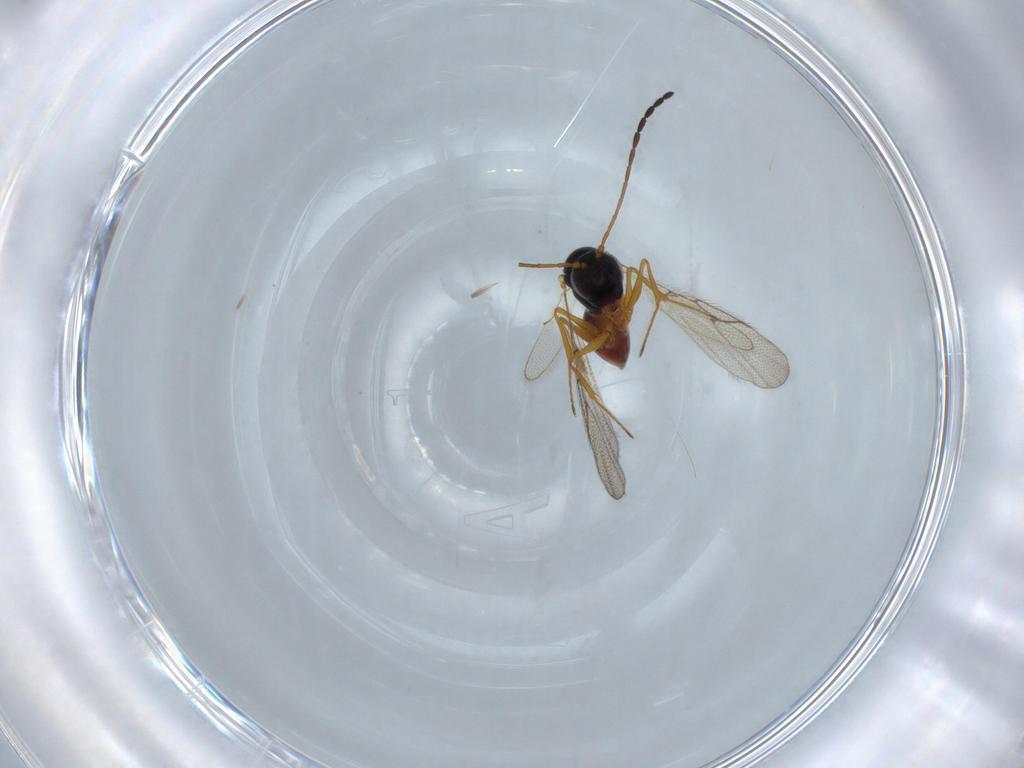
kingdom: Animalia
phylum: Arthropoda
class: Insecta
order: Hymenoptera
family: Figitidae
